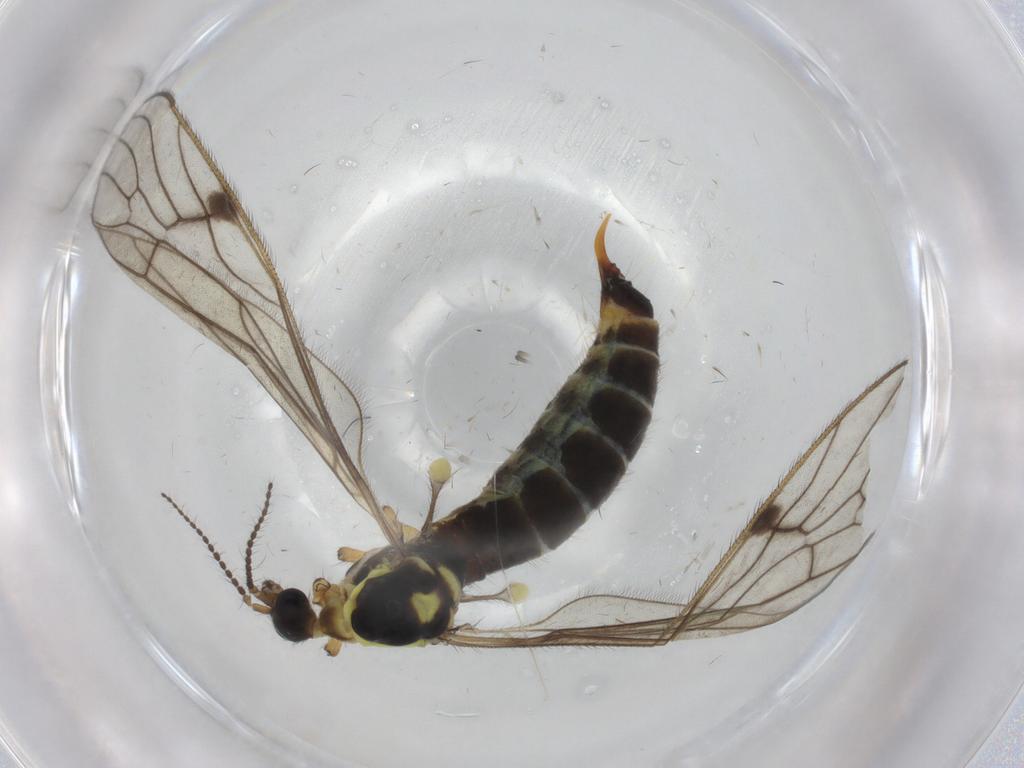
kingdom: Animalia
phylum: Arthropoda
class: Insecta
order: Diptera
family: Limoniidae
